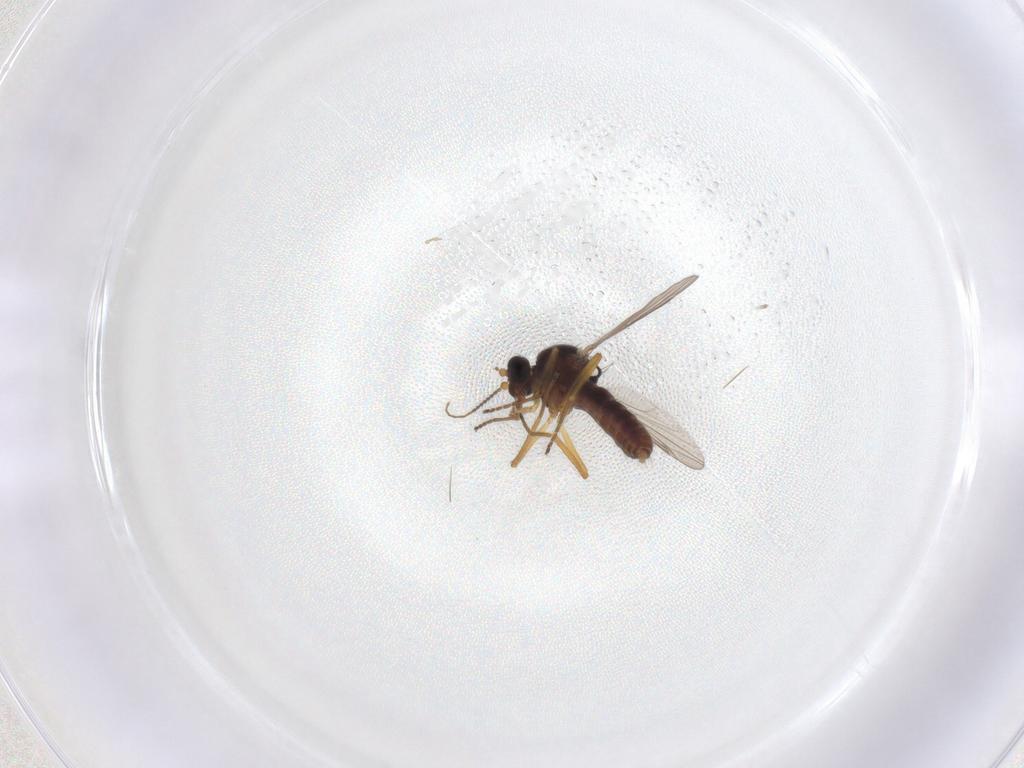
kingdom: Animalia
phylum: Arthropoda
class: Insecta
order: Diptera
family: Ceratopogonidae
